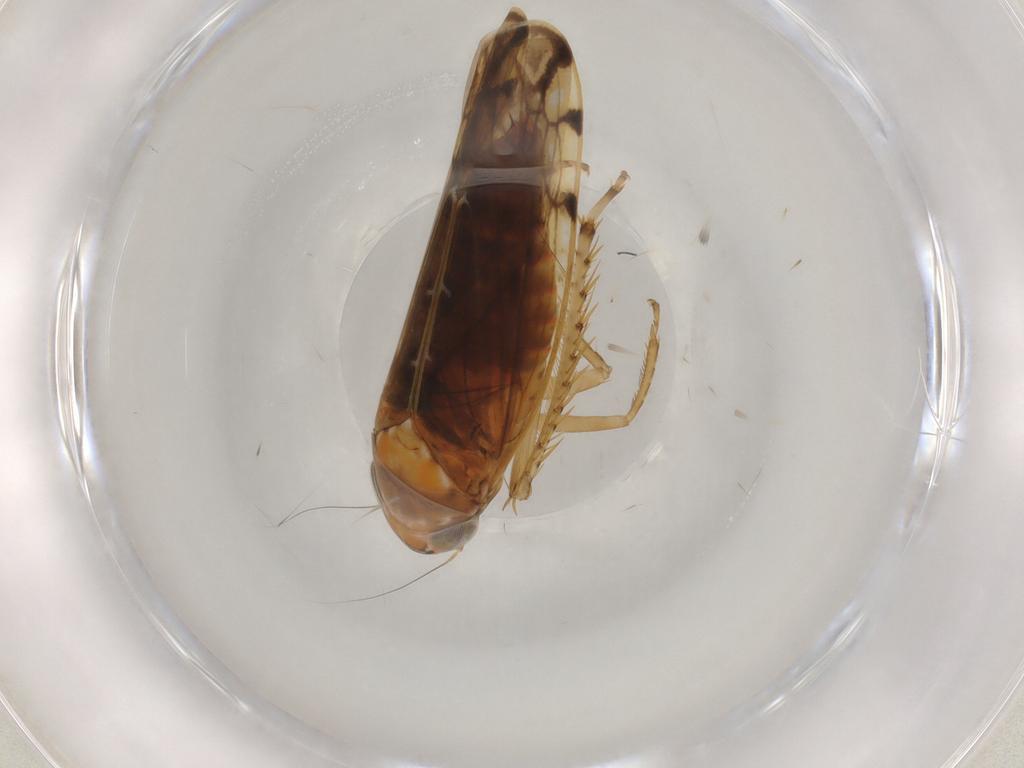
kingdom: Animalia
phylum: Arthropoda
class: Insecta
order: Hemiptera
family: Cicadellidae
